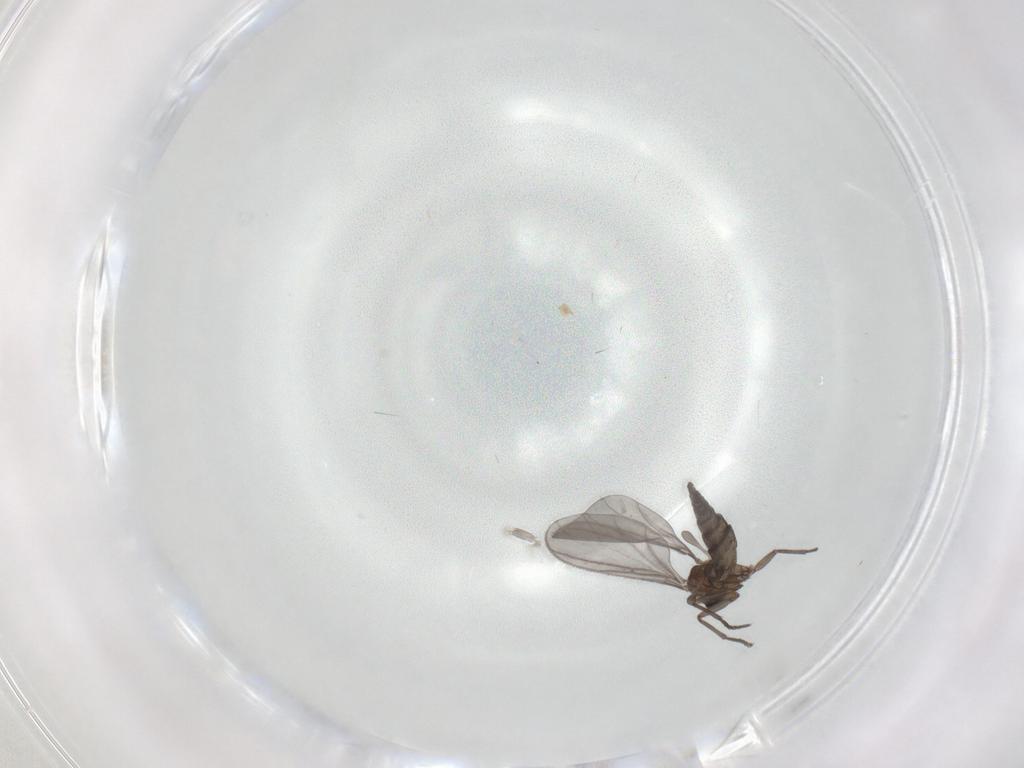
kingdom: Animalia
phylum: Arthropoda
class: Insecta
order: Diptera
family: Sciaridae
